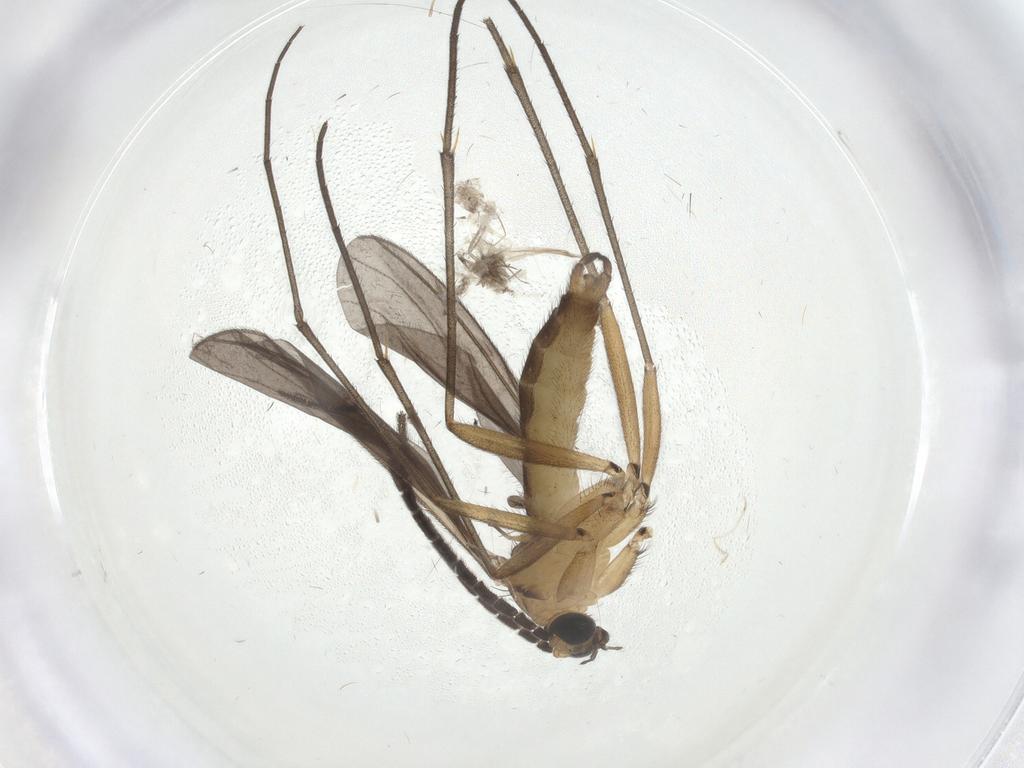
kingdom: Animalia
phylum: Arthropoda
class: Insecta
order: Diptera
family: Sciaridae
